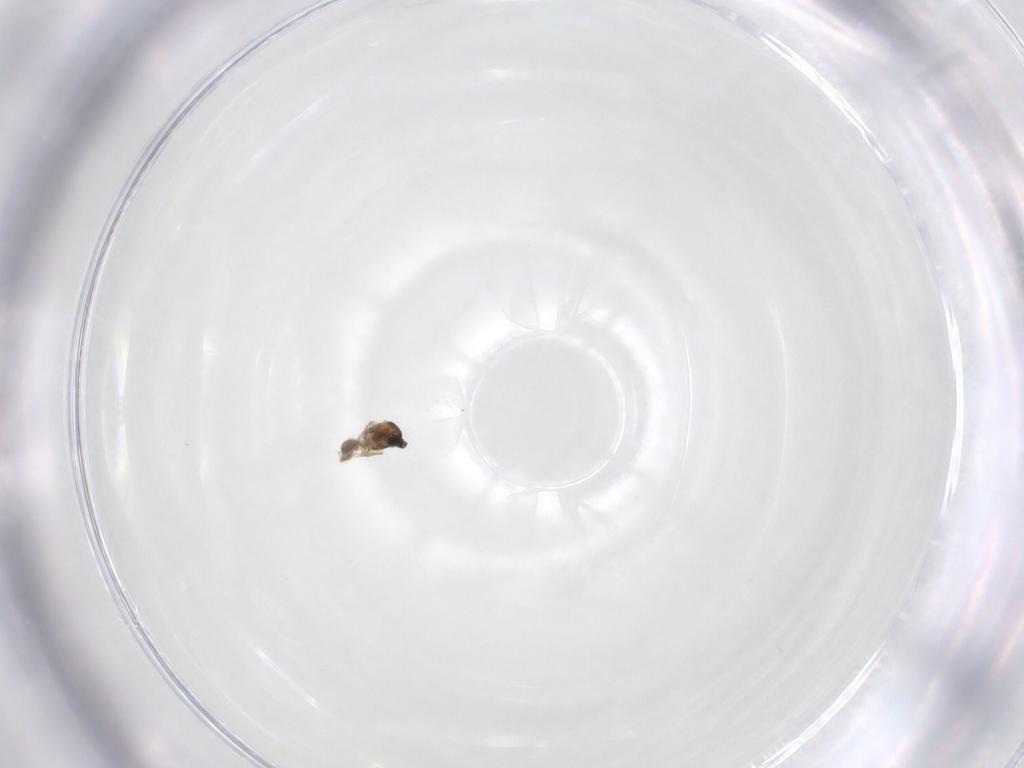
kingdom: Animalia
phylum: Arthropoda
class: Insecta
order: Diptera
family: Cecidomyiidae
